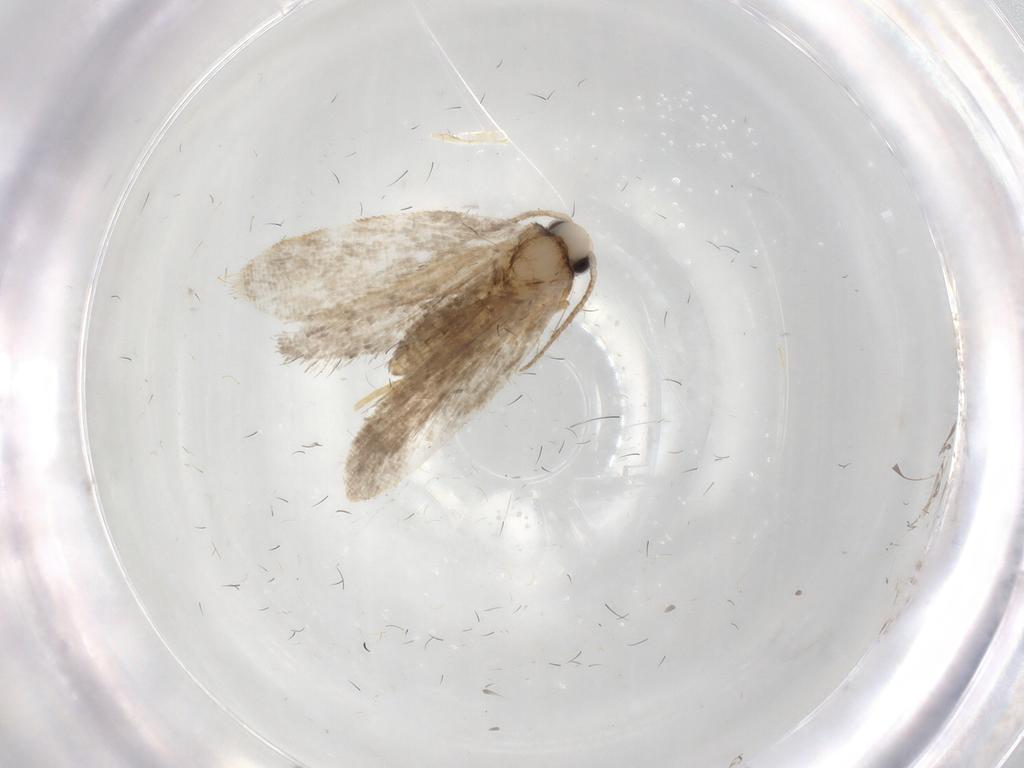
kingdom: Animalia
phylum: Arthropoda
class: Insecta
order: Lepidoptera
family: Psychidae
